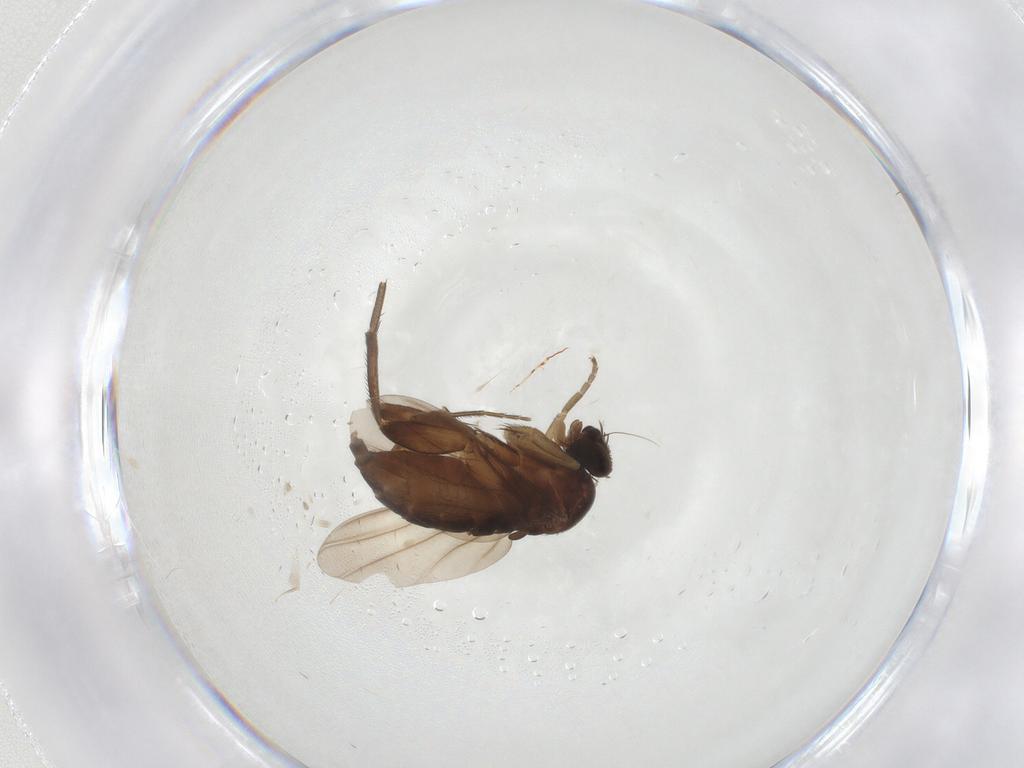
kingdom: Animalia
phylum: Arthropoda
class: Insecta
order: Diptera
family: Phoridae
